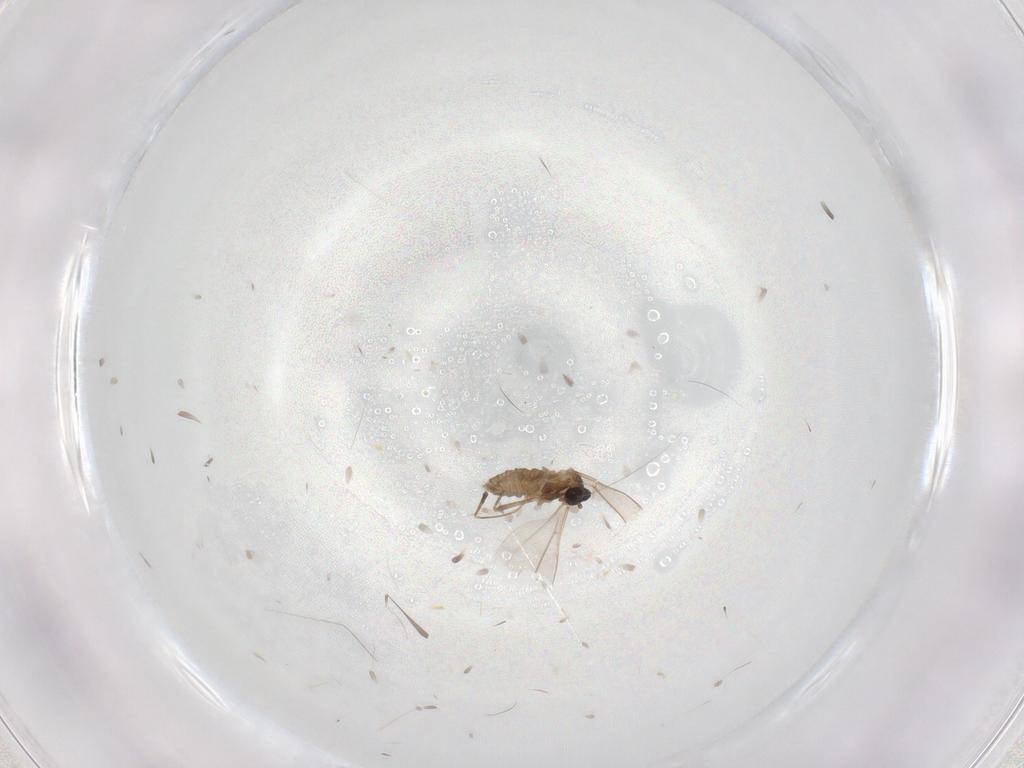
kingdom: Animalia
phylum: Arthropoda
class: Insecta
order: Diptera
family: Cecidomyiidae
